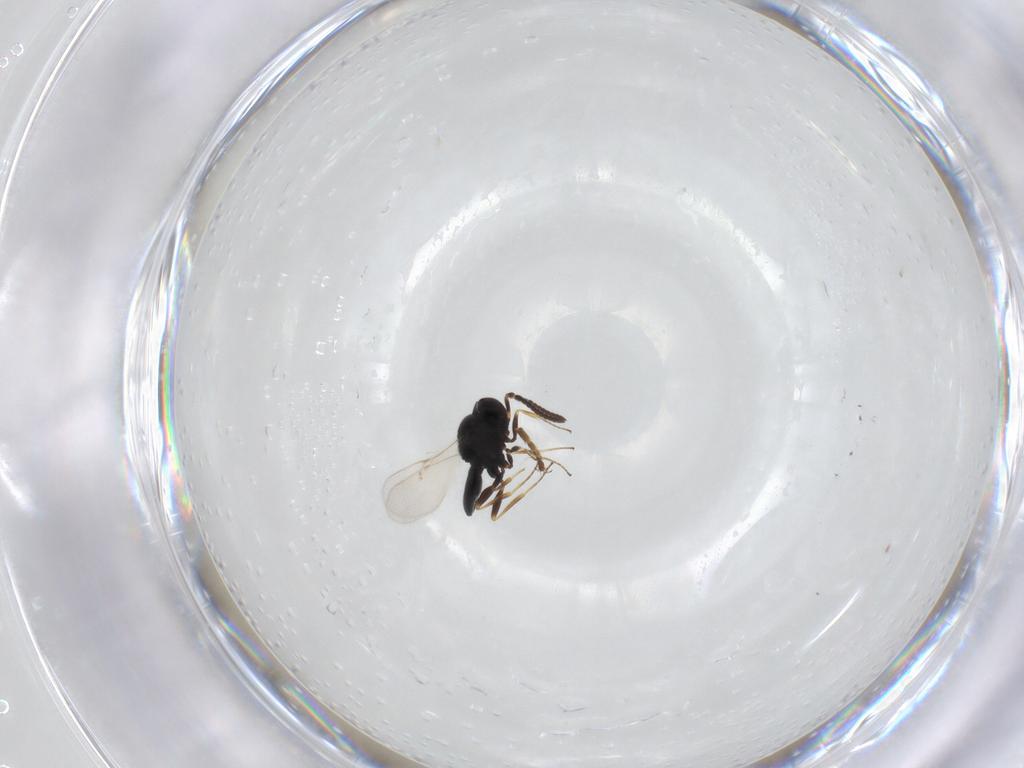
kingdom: Animalia
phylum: Arthropoda
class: Insecta
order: Hymenoptera
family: Scelionidae
